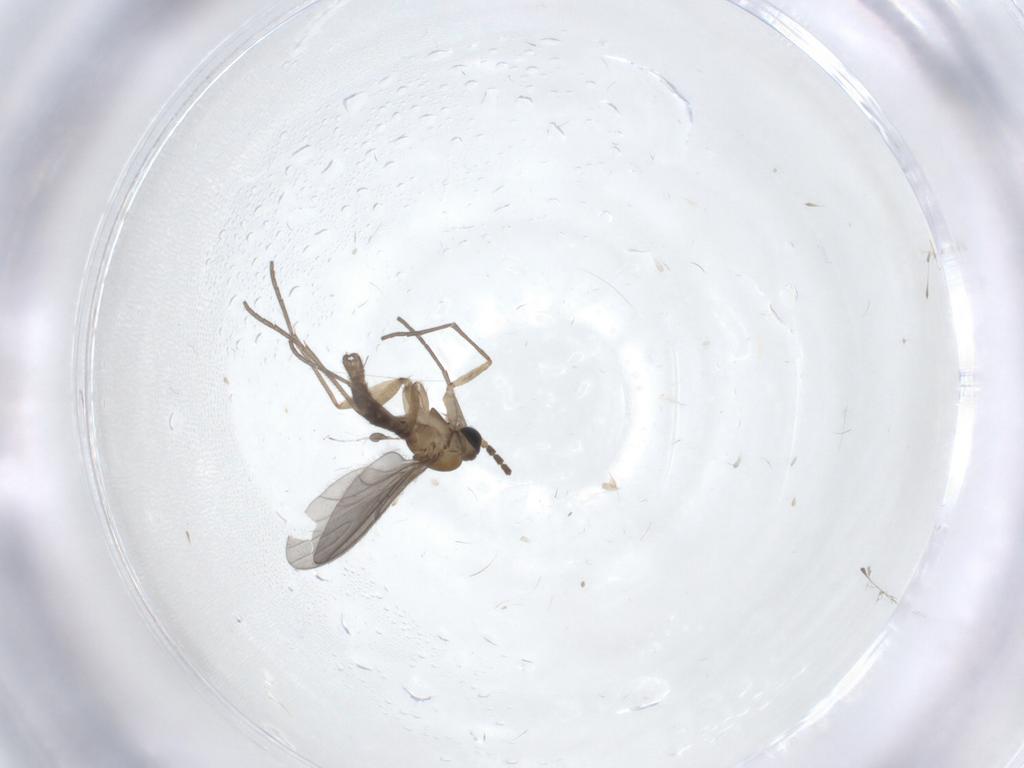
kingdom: Animalia
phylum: Arthropoda
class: Insecta
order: Diptera
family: Sciaridae
